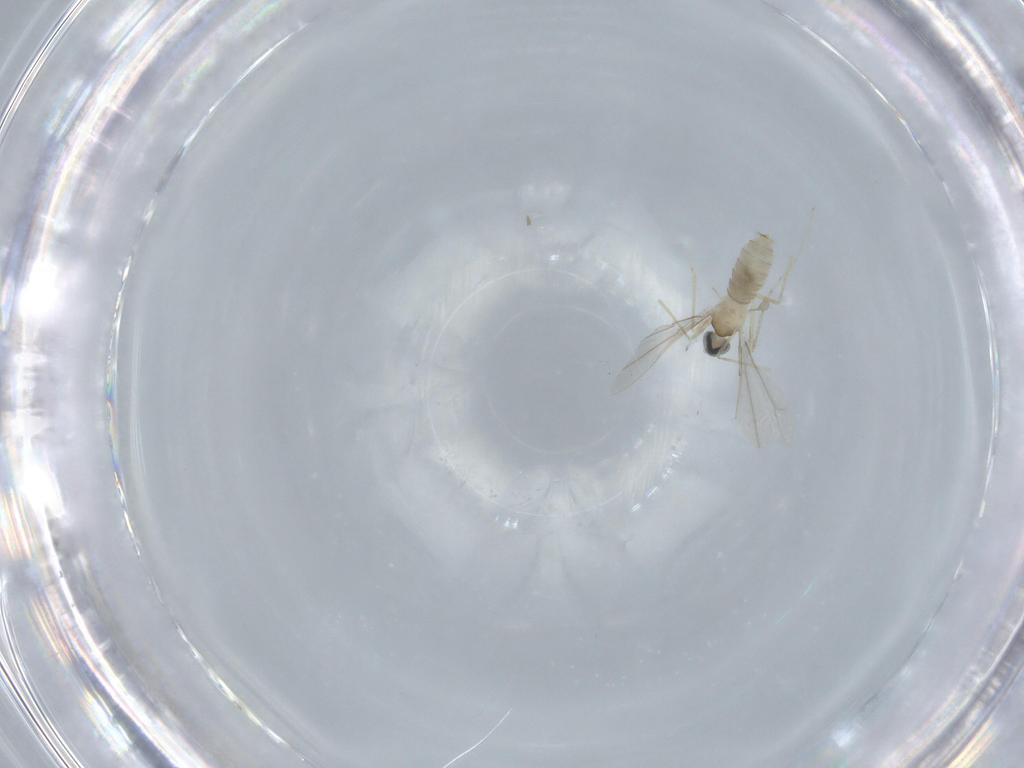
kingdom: Animalia
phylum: Arthropoda
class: Insecta
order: Diptera
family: Cecidomyiidae
